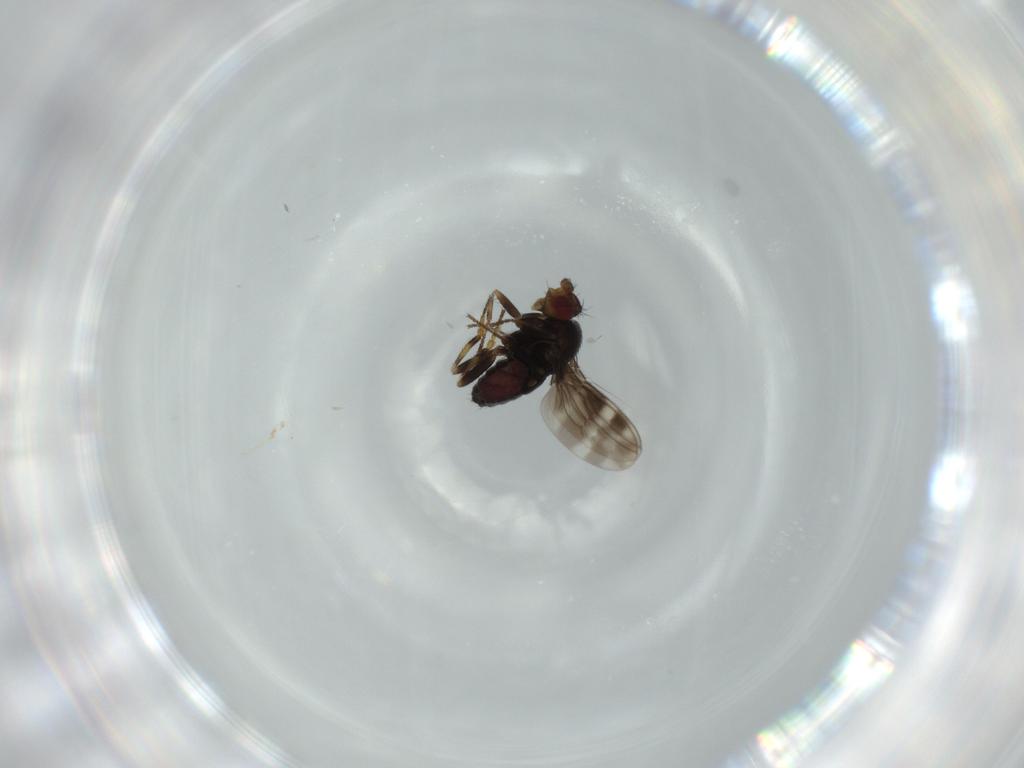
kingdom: Animalia
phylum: Arthropoda
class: Insecta
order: Diptera
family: Sphaeroceridae
